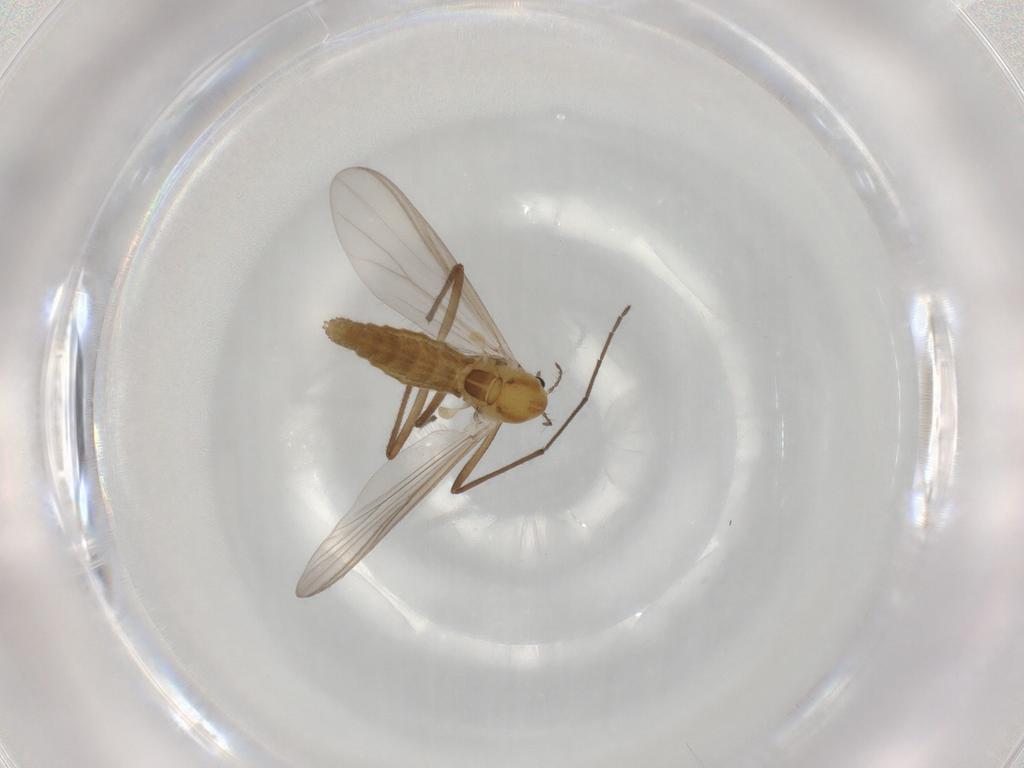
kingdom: Animalia
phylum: Arthropoda
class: Insecta
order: Diptera
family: Chironomidae
